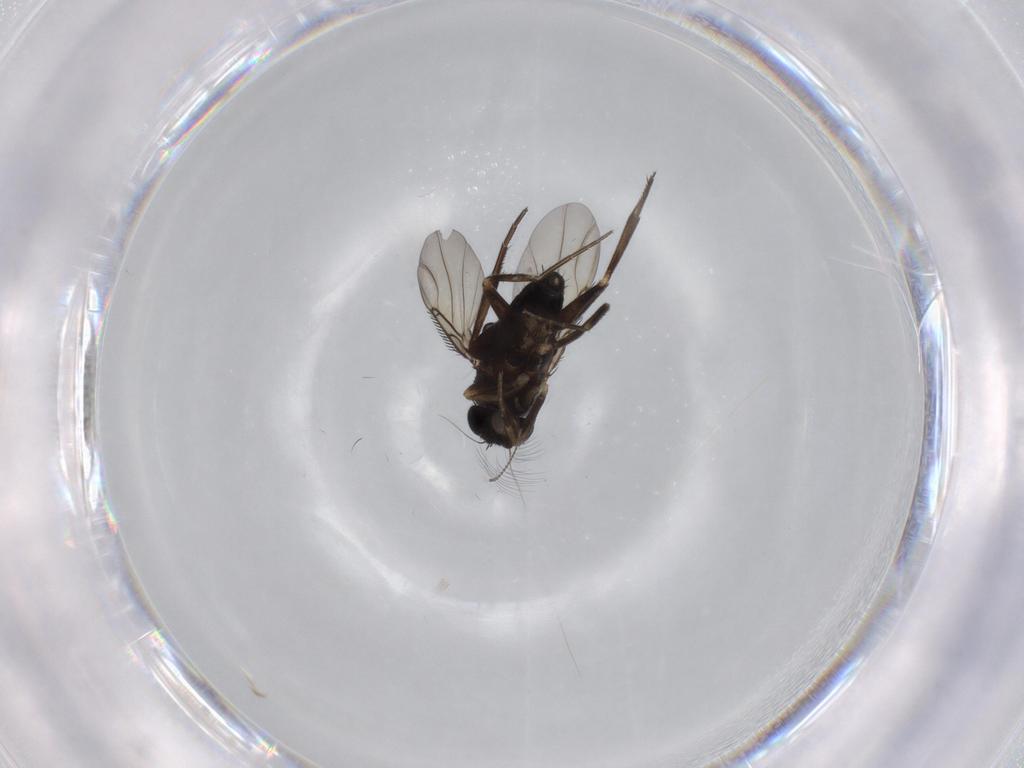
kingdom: Animalia
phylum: Arthropoda
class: Insecta
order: Diptera
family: Phoridae
